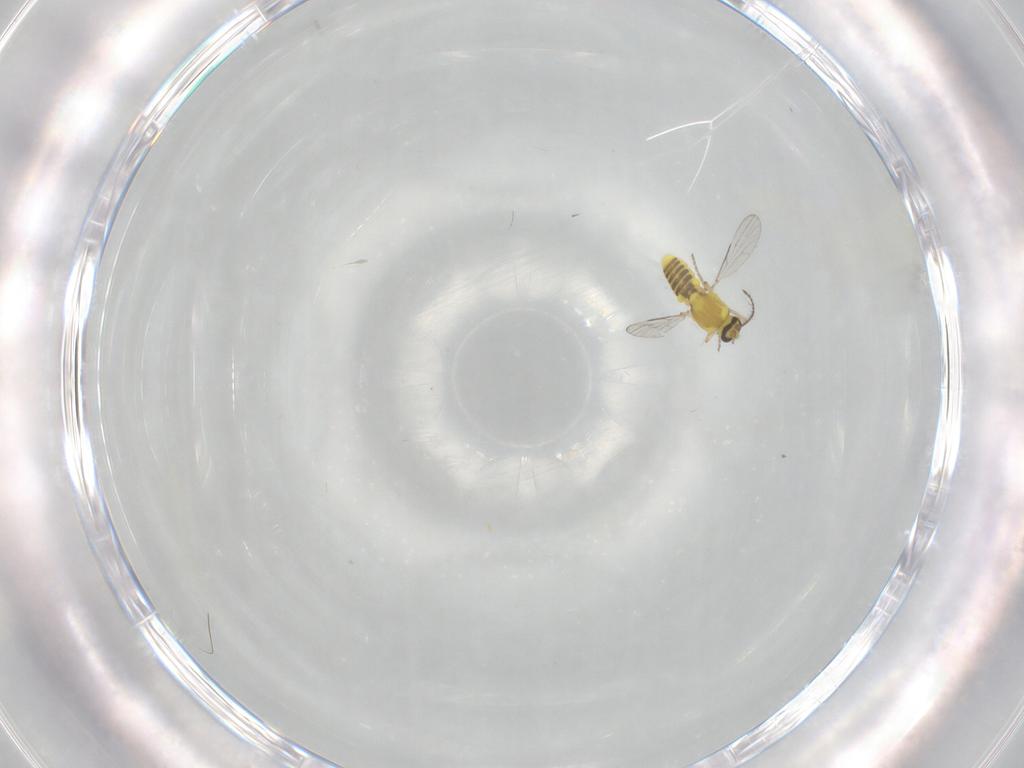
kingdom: Animalia
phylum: Arthropoda
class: Insecta
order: Diptera
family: Ceratopogonidae
